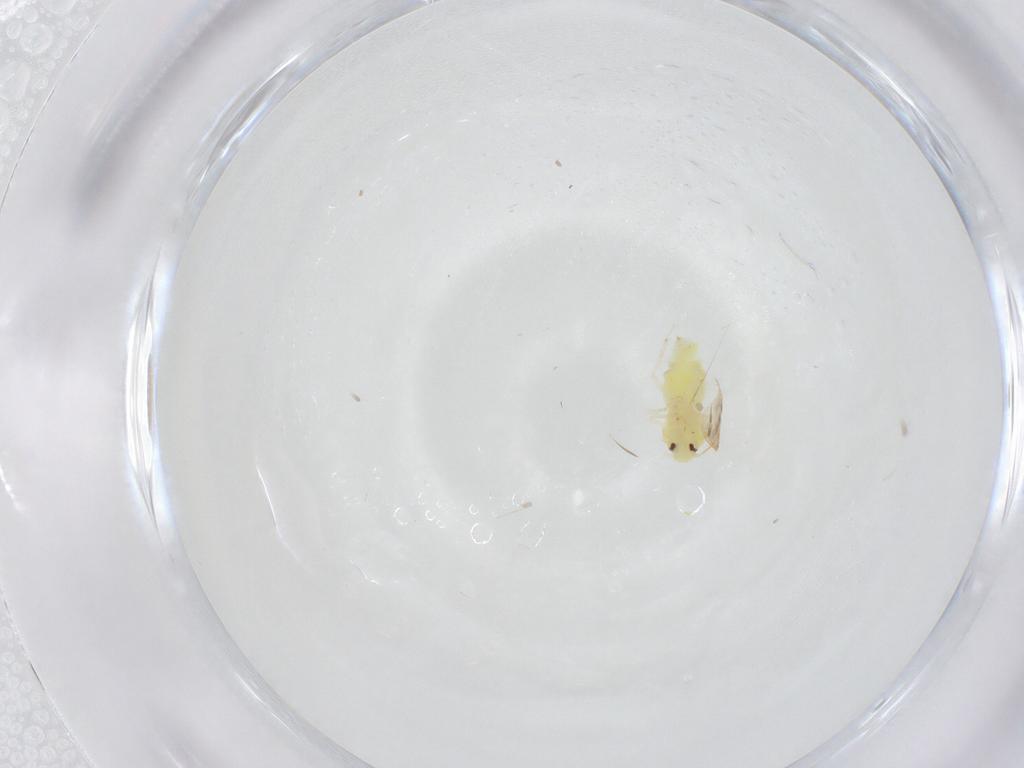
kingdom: Animalia
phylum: Arthropoda
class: Insecta
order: Hemiptera
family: Aleyrodidae
